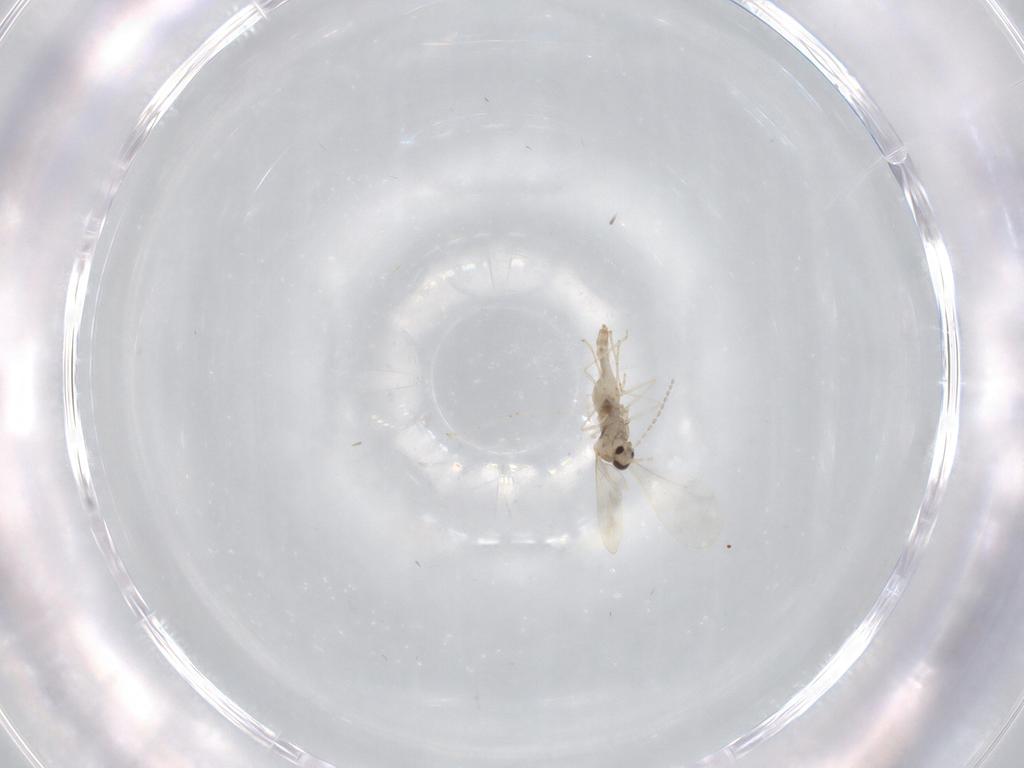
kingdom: Animalia
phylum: Arthropoda
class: Insecta
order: Diptera
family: Cecidomyiidae
